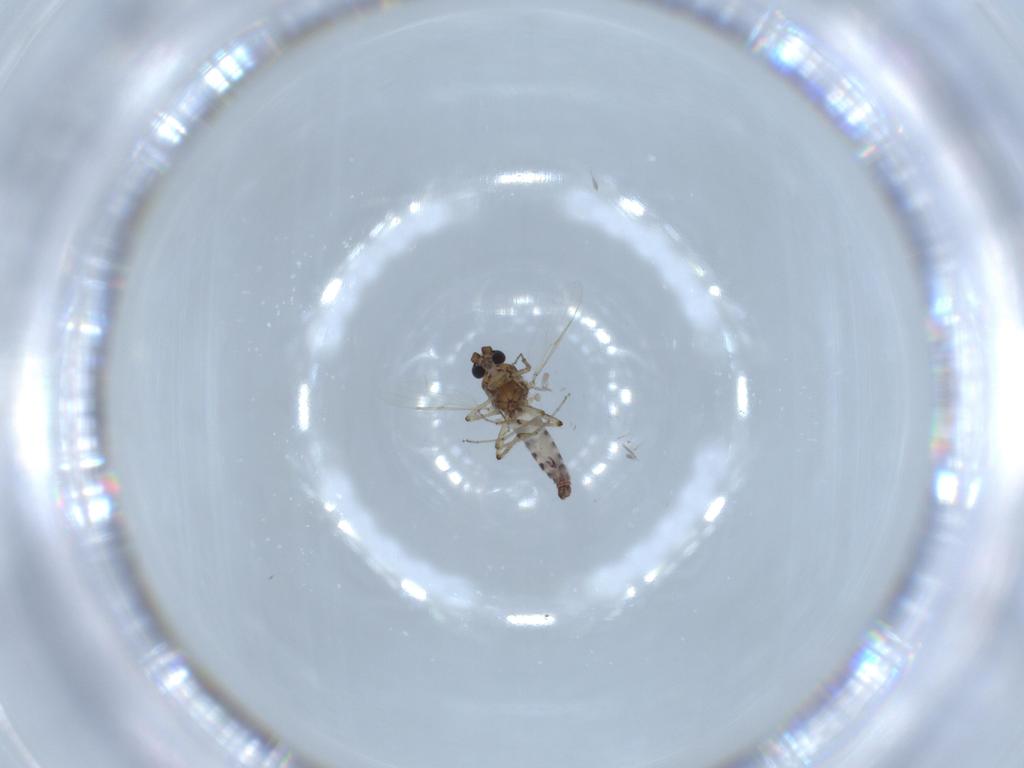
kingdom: Animalia
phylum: Arthropoda
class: Insecta
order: Diptera
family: Ceratopogonidae
